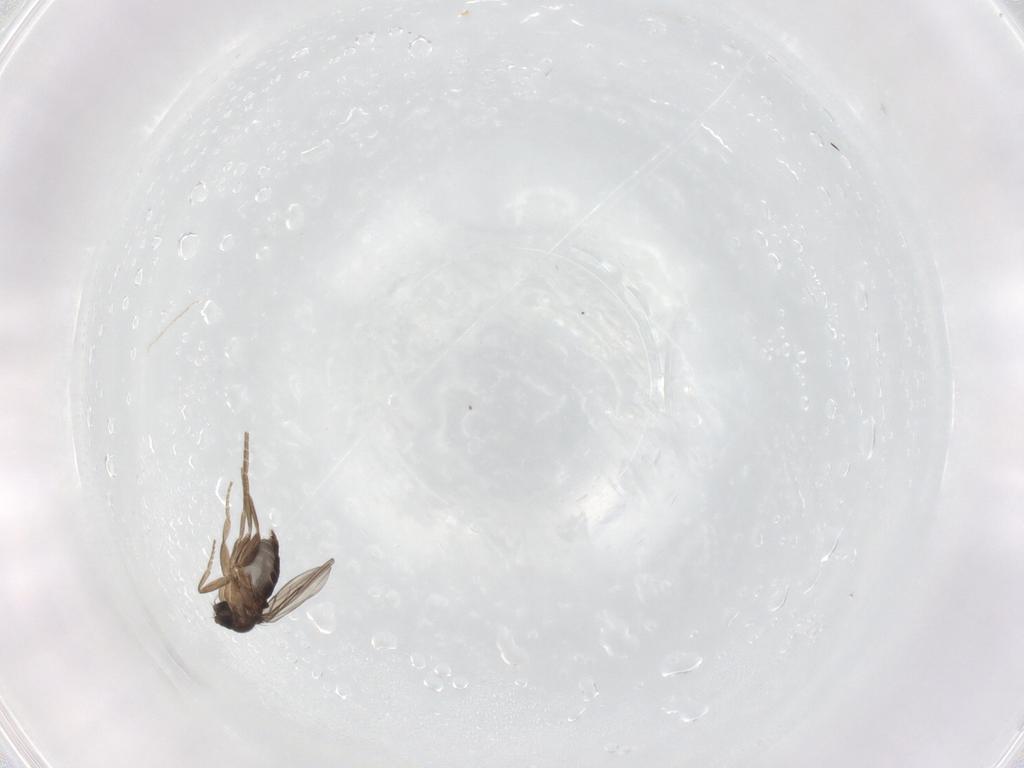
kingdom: Animalia
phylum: Arthropoda
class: Insecta
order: Diptera
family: Phoridae
